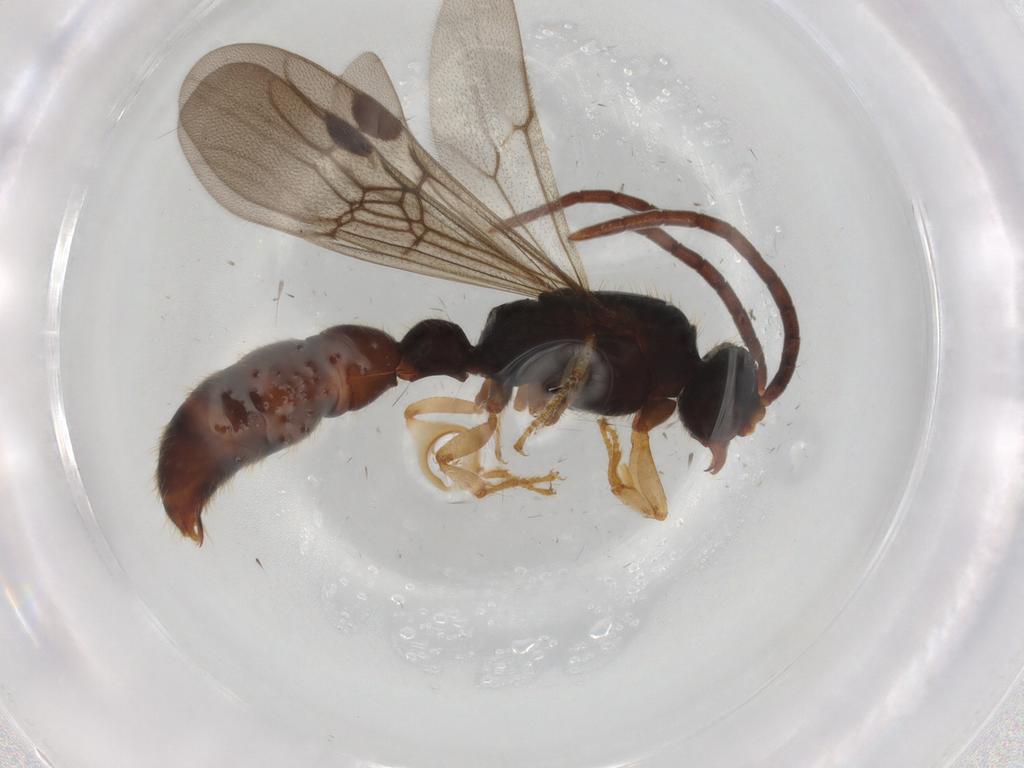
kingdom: Animalia
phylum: Arthropoda
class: Insecta
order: Hymenoptera
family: Formicidae
